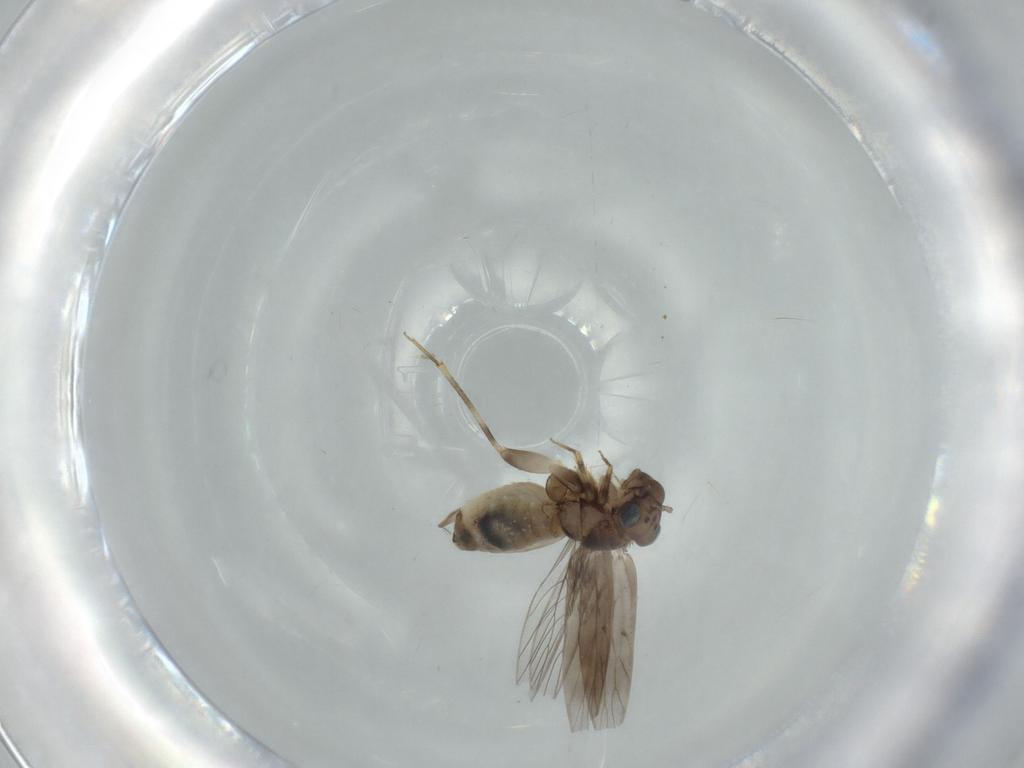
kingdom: Animalia
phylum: Arthropoda
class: Insecta
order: Psocodea
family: Lepidopsocidae
